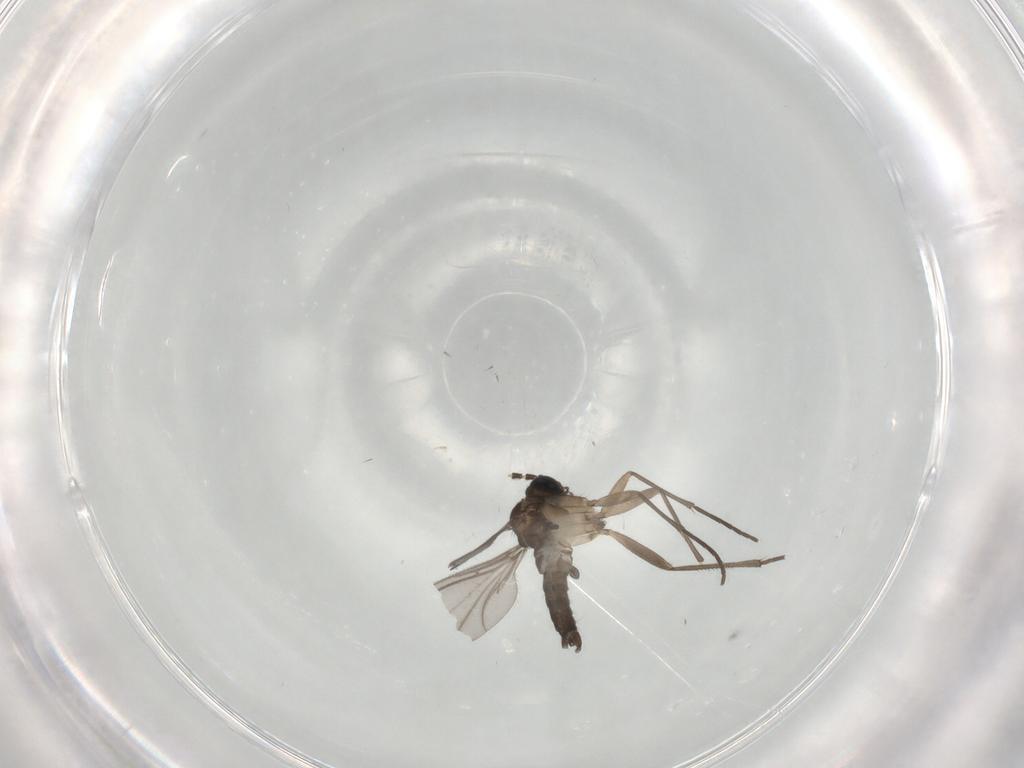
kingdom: Animalia
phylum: Arthropoda
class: Insecta
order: Diptera
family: Sciaridae
